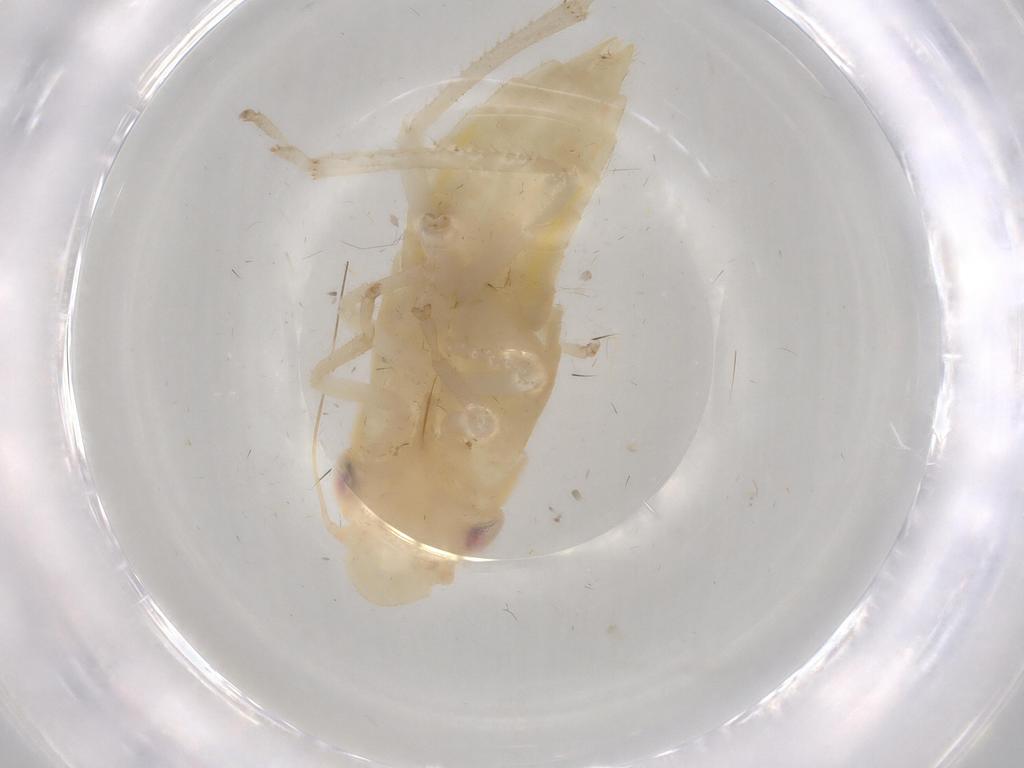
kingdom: Animalia
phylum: Arthropoda
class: Insecta
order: Hemiptera
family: Cicadellidae
